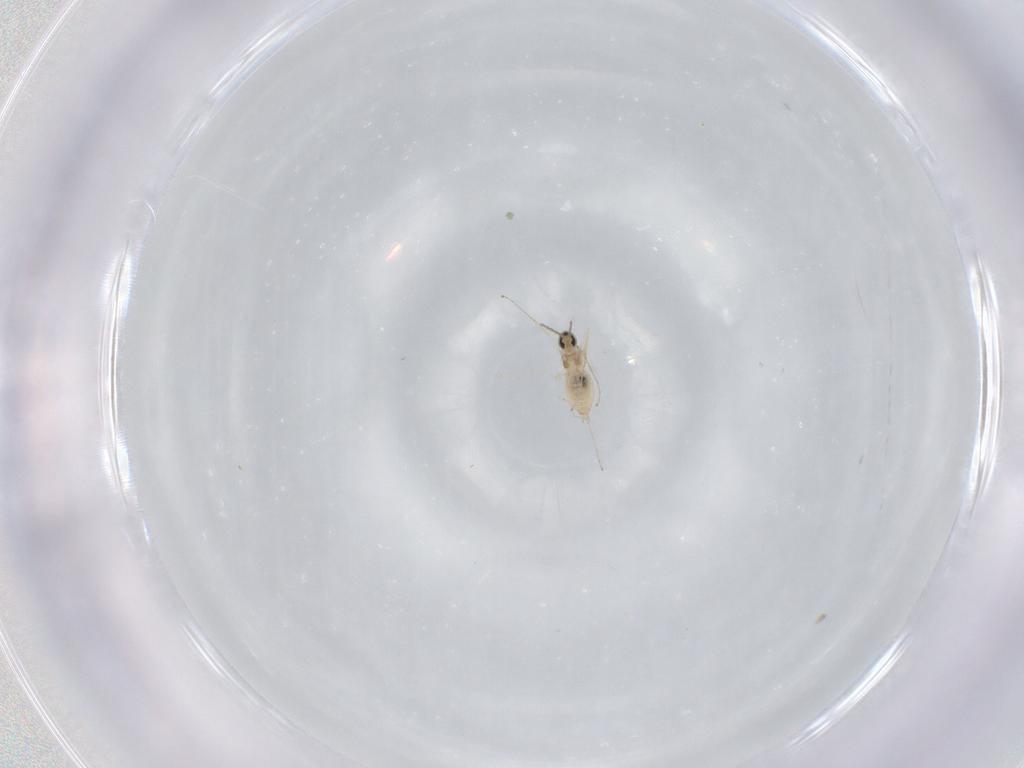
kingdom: Animalia
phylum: Arthropoda
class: Insecta
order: Diptera
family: Cecidomyiidae
